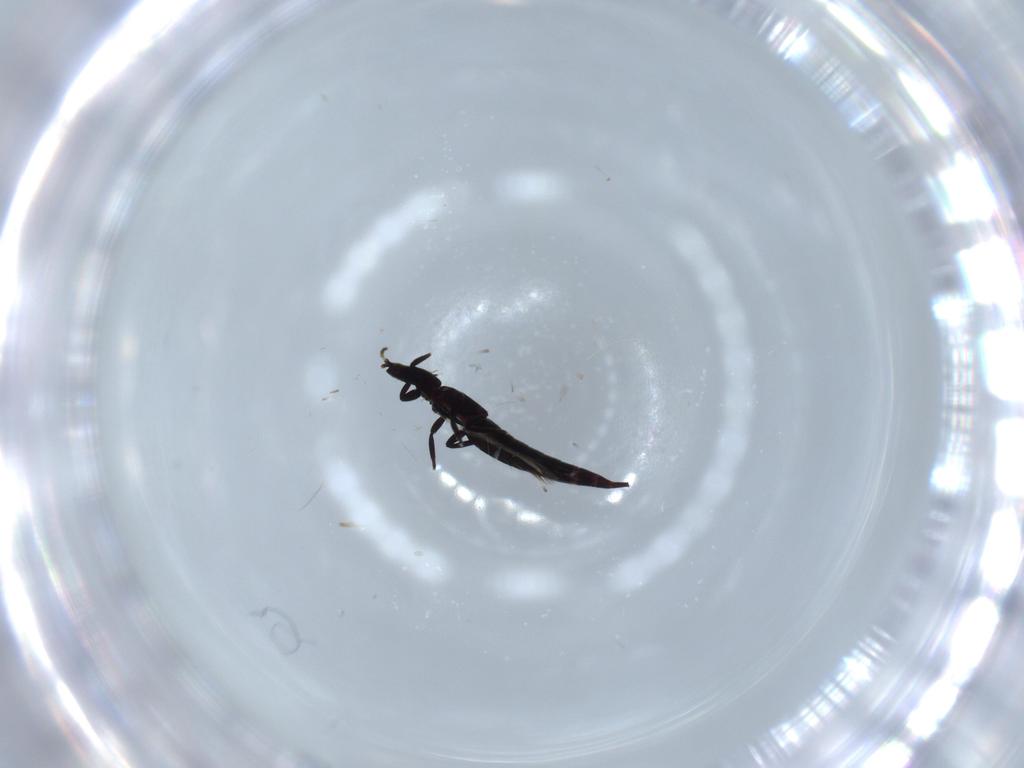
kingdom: Animalia
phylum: Arthropoda
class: Insecta
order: Thysanoptera
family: Phlaeothripidae
